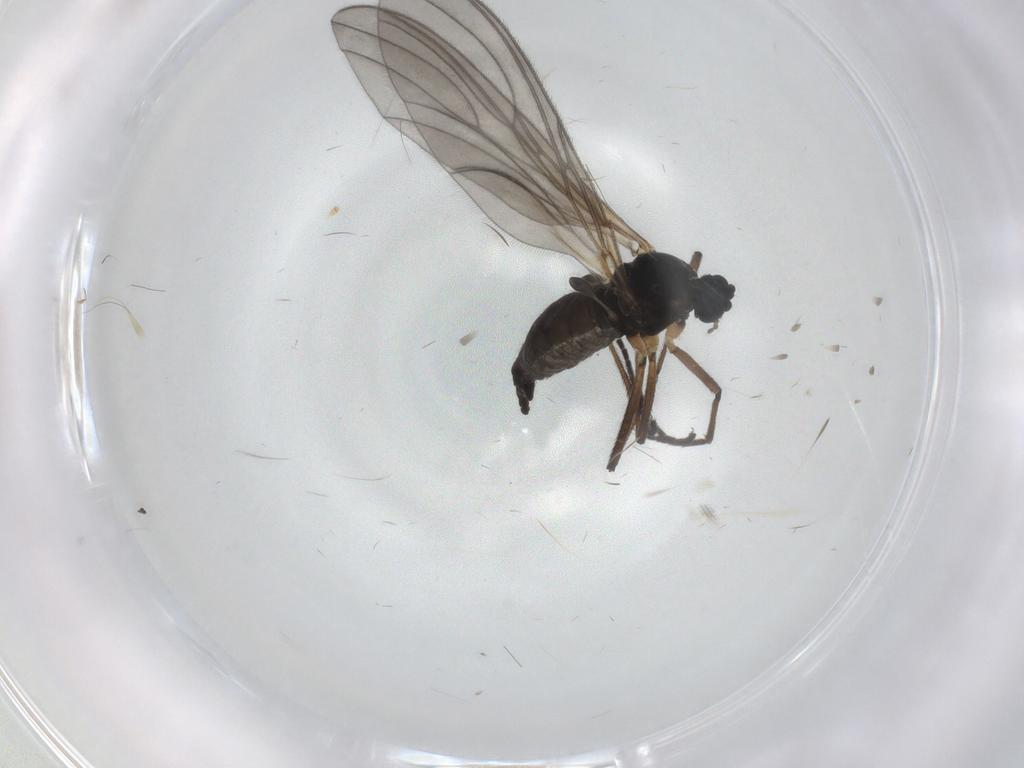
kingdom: Animalia
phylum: Arthropoda
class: Insecta
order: Diptera
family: Sciaridae
